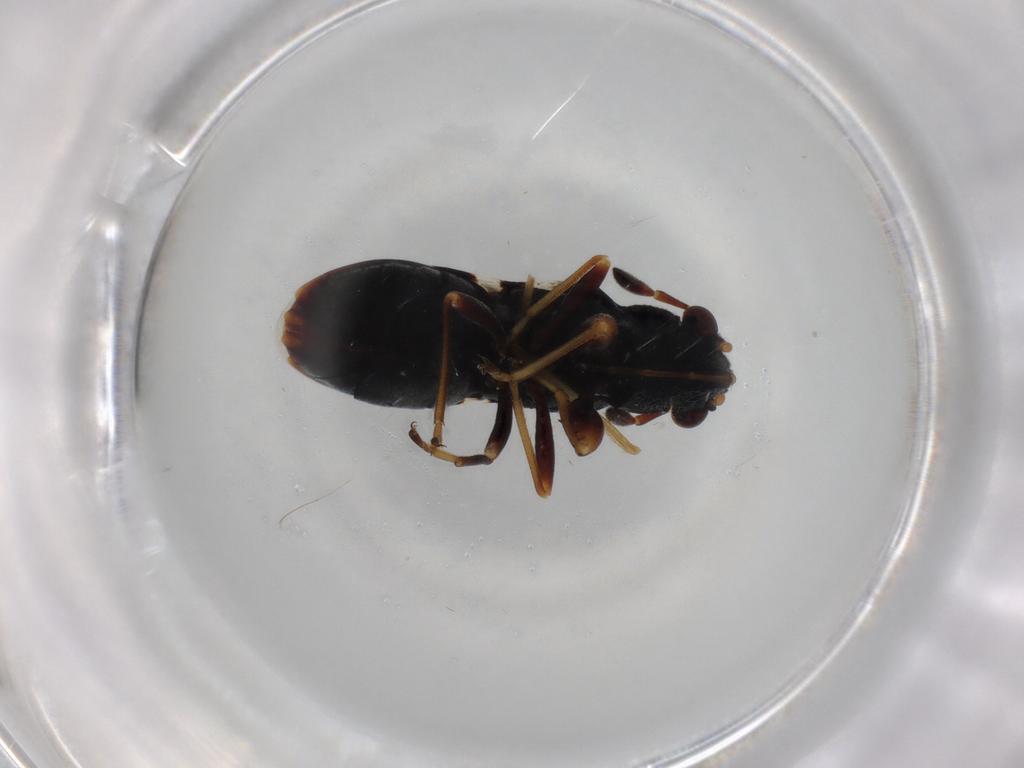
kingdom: Animalia
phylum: Arthropoda
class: Insecta
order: Hemiptera
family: Rhyparochromidae
